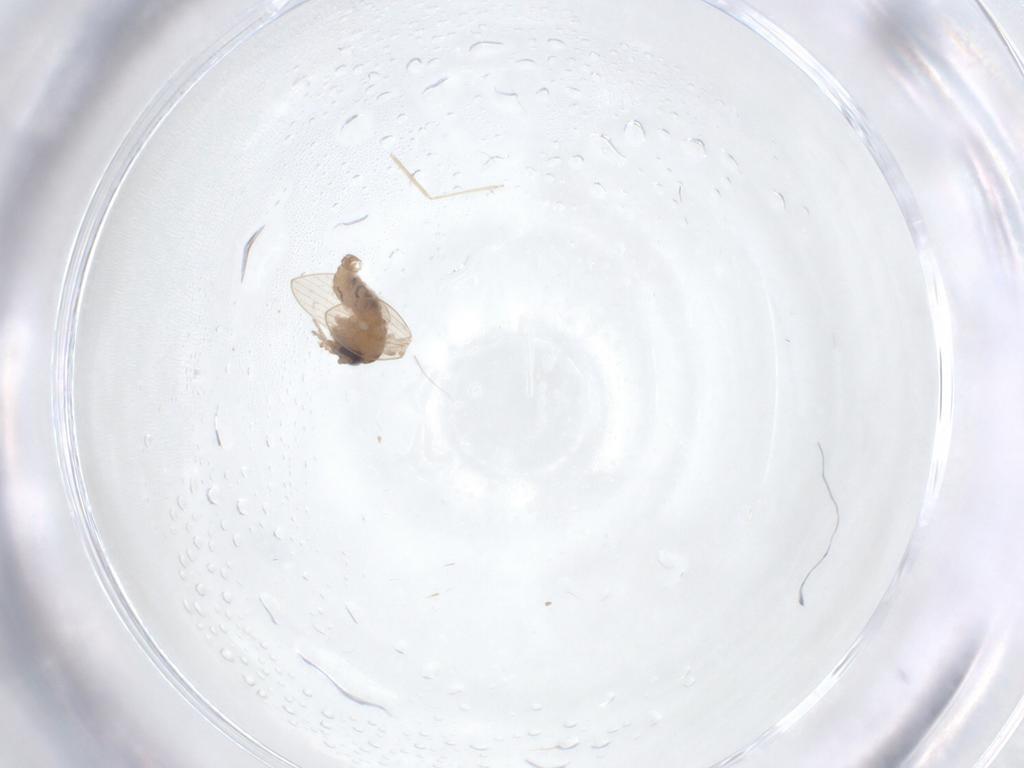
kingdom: Animalia
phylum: Arthropoda
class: Insecta
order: Diptera
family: Cecidomyiidae
